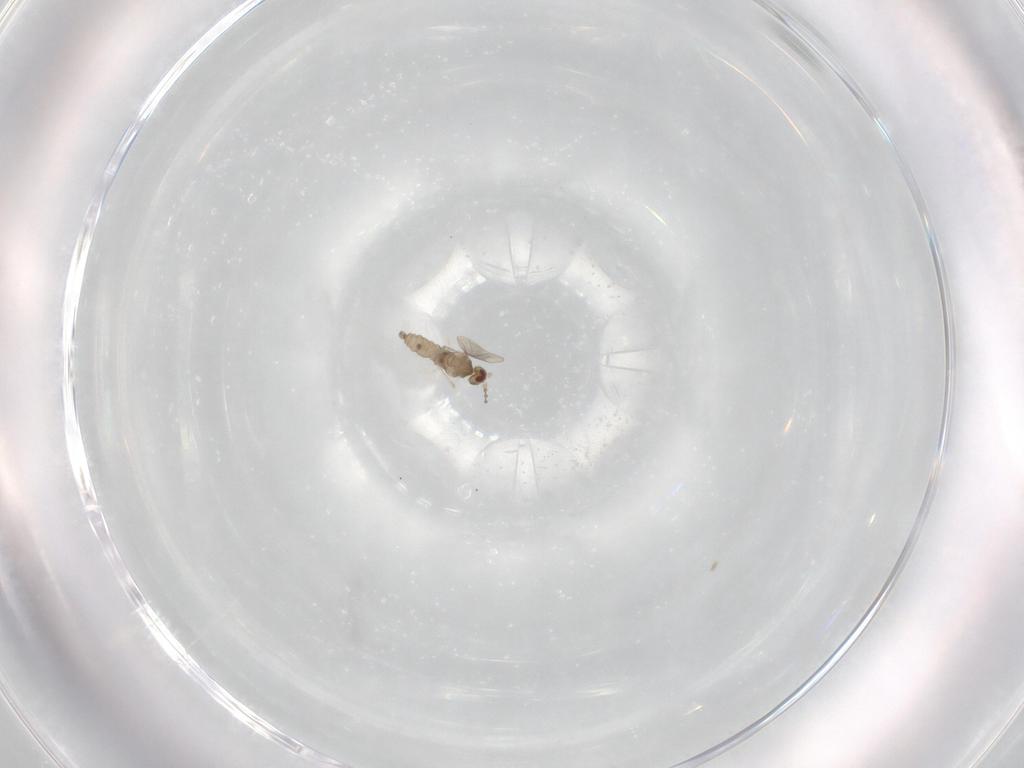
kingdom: Animalia
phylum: Arthropoda
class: Insecta
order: Diptera
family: Cecidomyiidae
